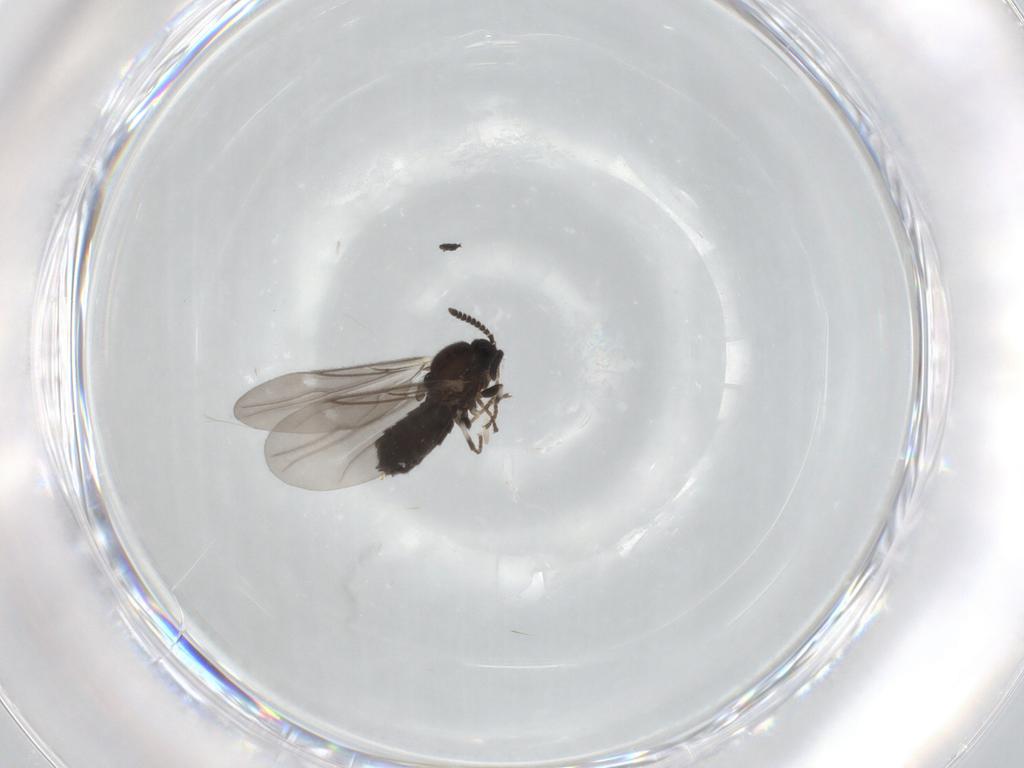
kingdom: Animalia
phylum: Arthropoda
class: Insecta
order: Diptera
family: Scatopsidae
